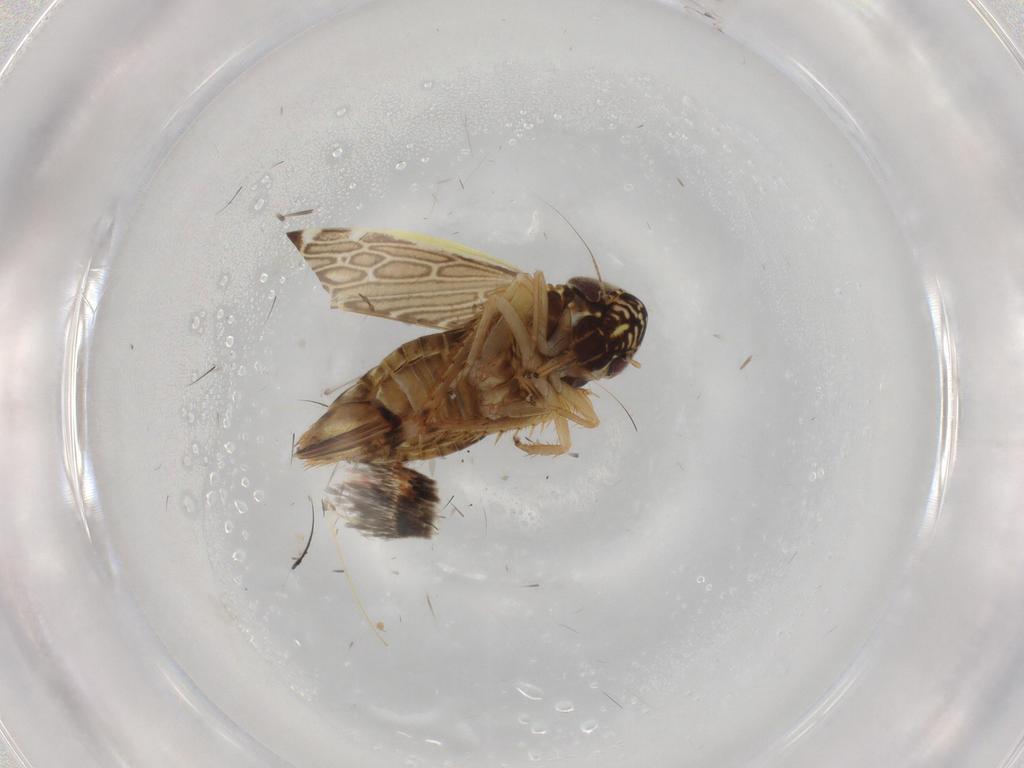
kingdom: Animalia
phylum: Arthropoda
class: Insecta
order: Hemiptera
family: Cicadellidae
